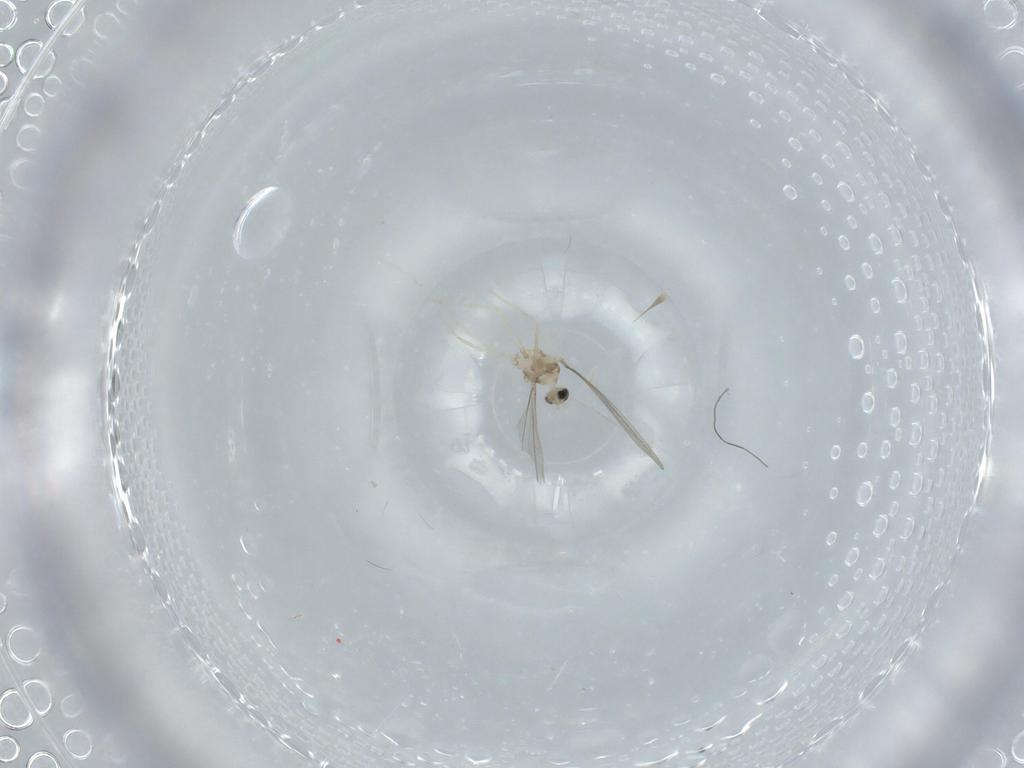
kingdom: Animalia
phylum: Arthropoda
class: Insecta
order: Diptera
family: Cecidomyiidae
